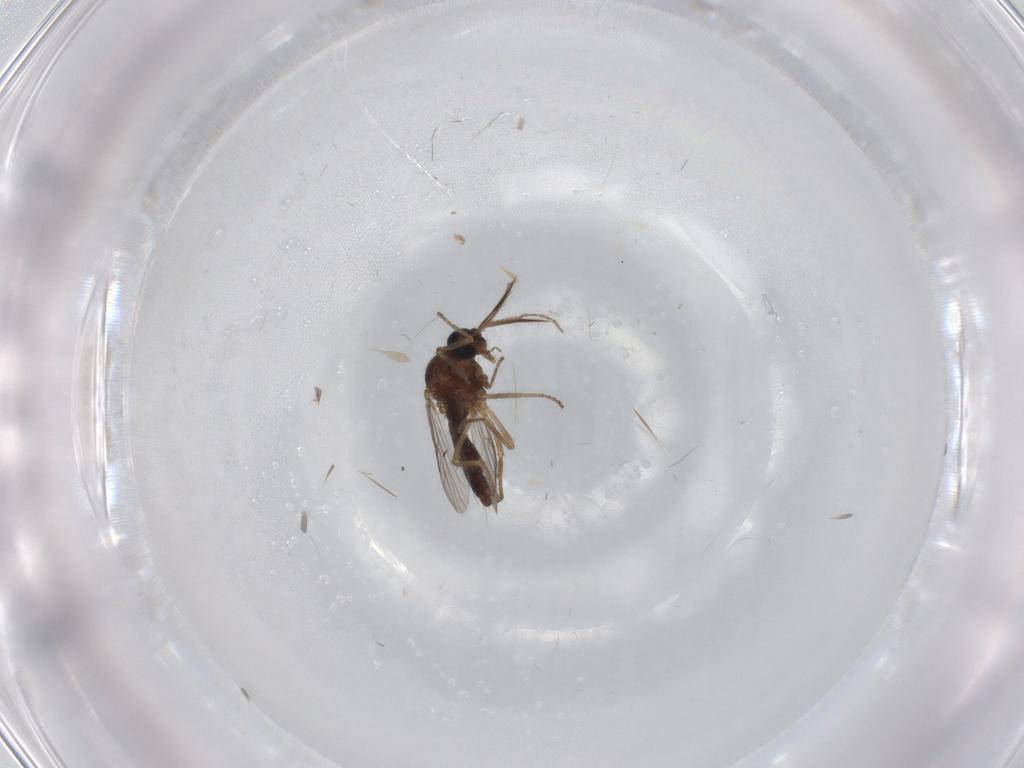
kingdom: Animalia
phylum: Arthropoda
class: Insecta
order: Diptera
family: Ceratopogonidae
